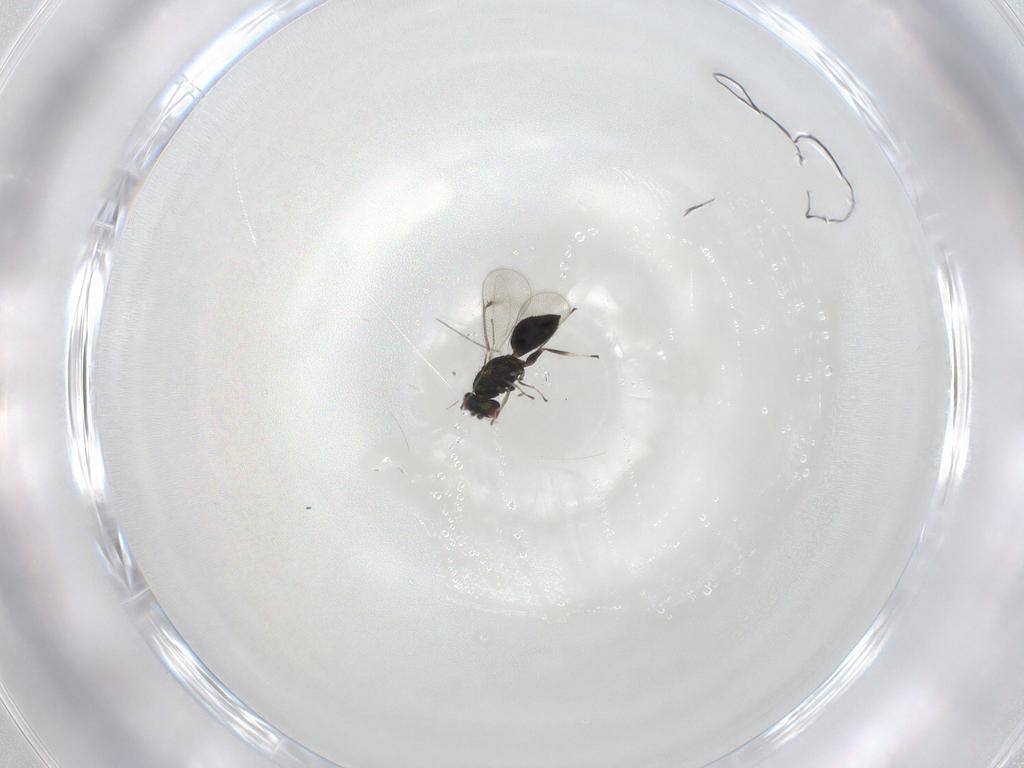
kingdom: Animalia
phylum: Arthropoda
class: Insecta
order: Hymenoptera
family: Eulophidae
